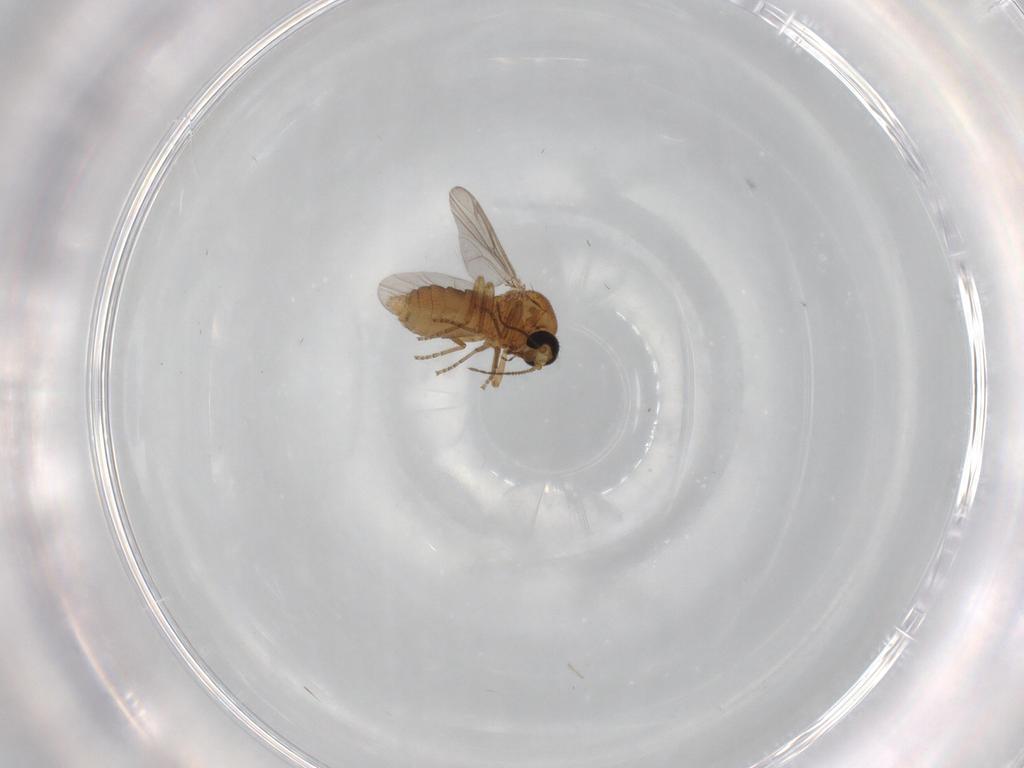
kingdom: Animalia
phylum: Arthropoda
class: Insecta
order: Diptera
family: Ceratopogonidae
